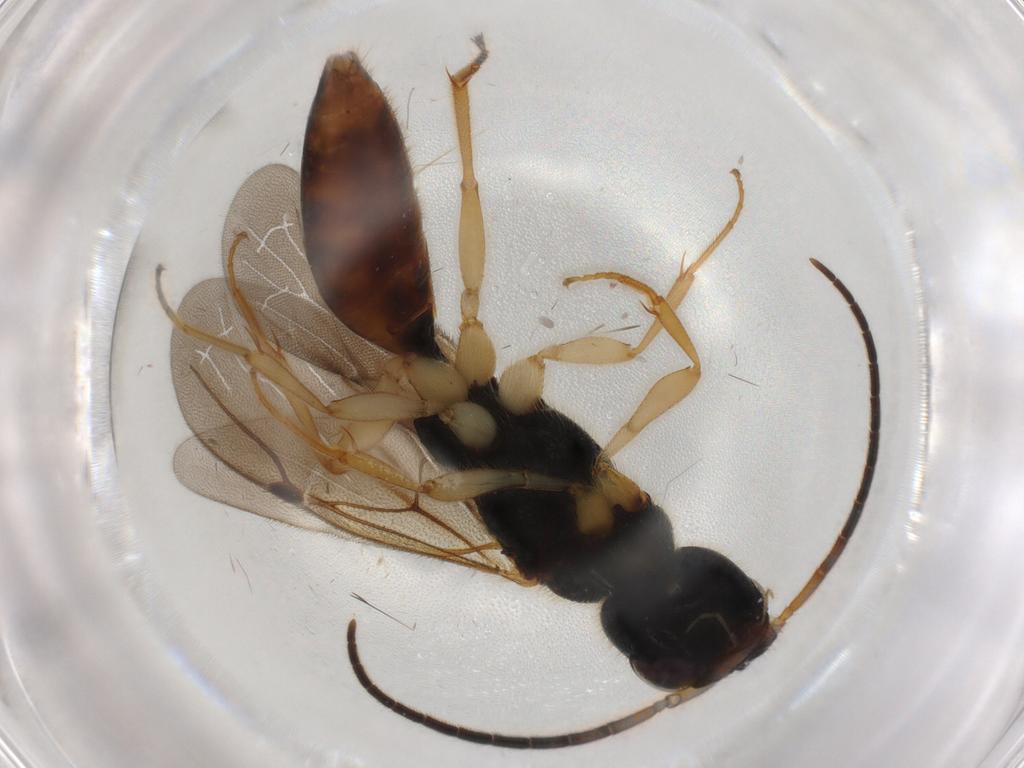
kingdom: Animalia
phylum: Arthropoda
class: Insecta
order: Hymenoptera
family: Bethylidae
